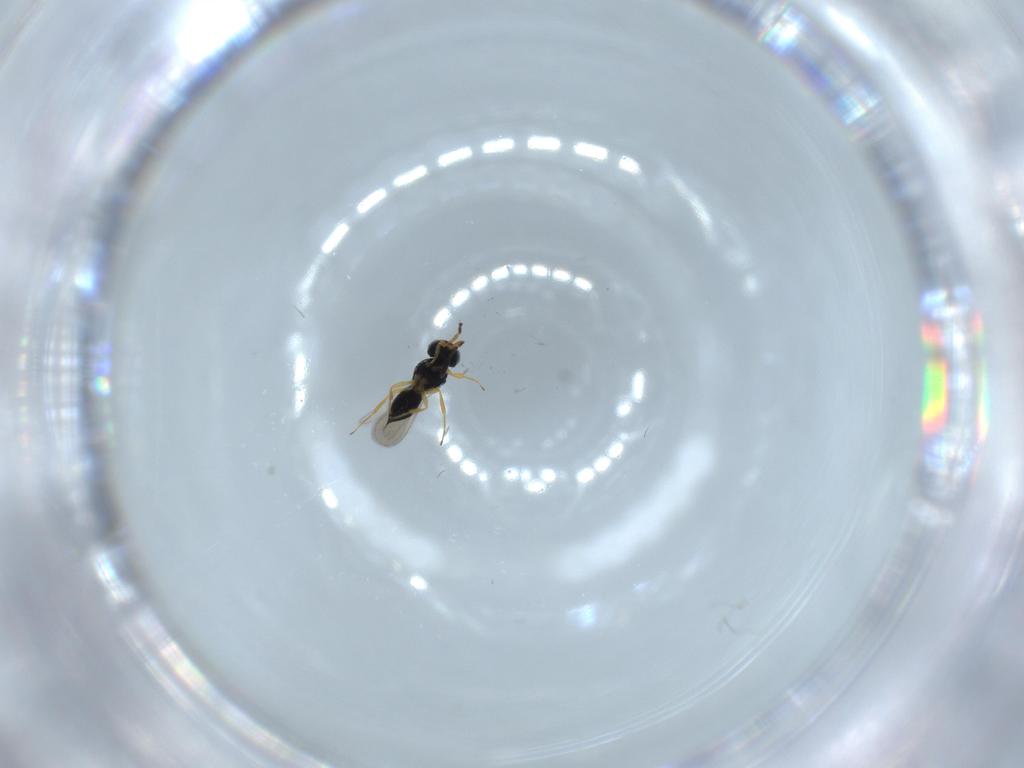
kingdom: Animalia
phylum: Arthropoda
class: Insecta
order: Hymenoptera
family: Scelionidae
